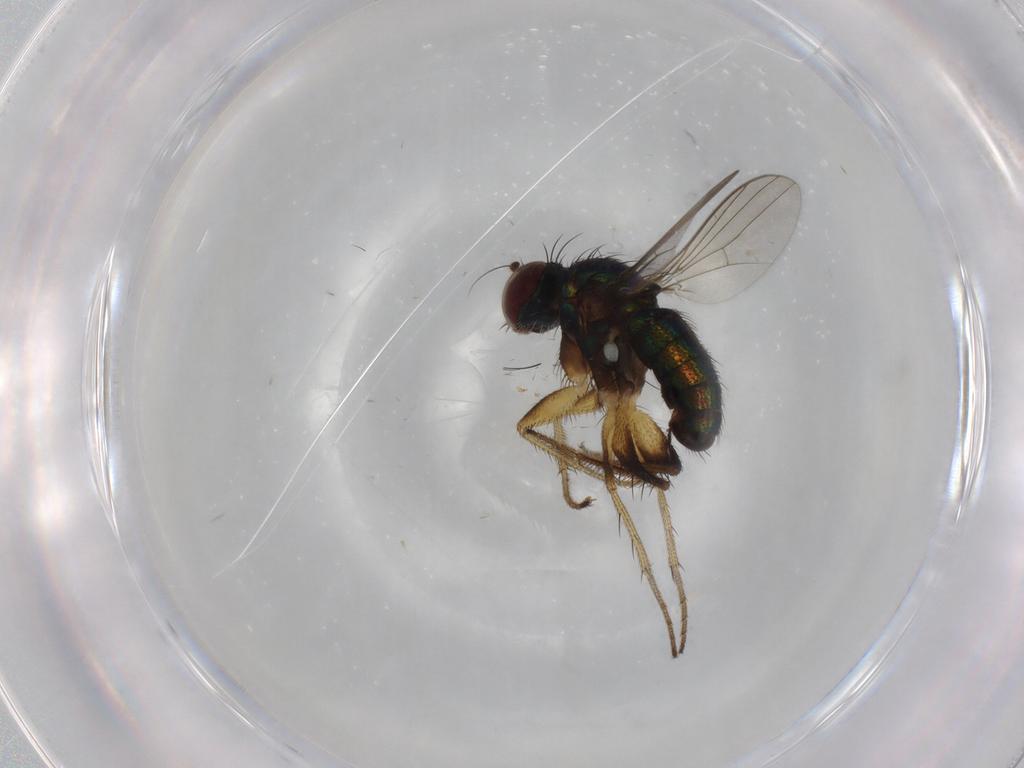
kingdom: Animalia
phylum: Arthropoda
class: Insecta
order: Diptera
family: Dolichopodidae
